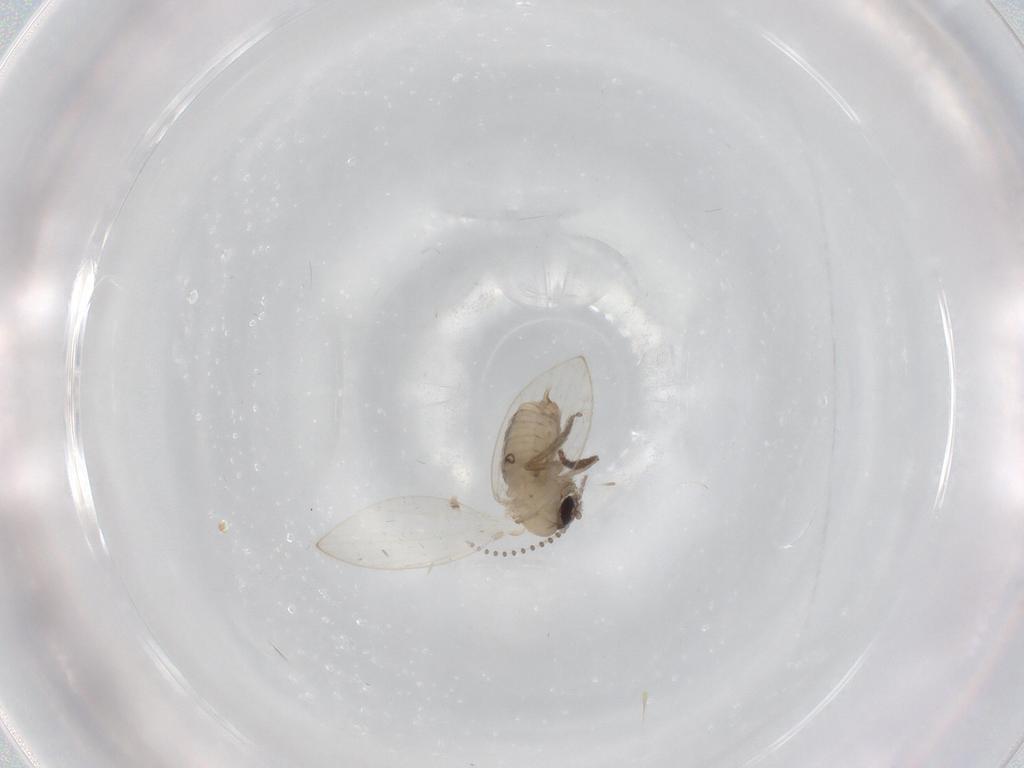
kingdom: Animalia
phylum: Arthropoda
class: Insecta
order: Diptera
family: Psychodidae
